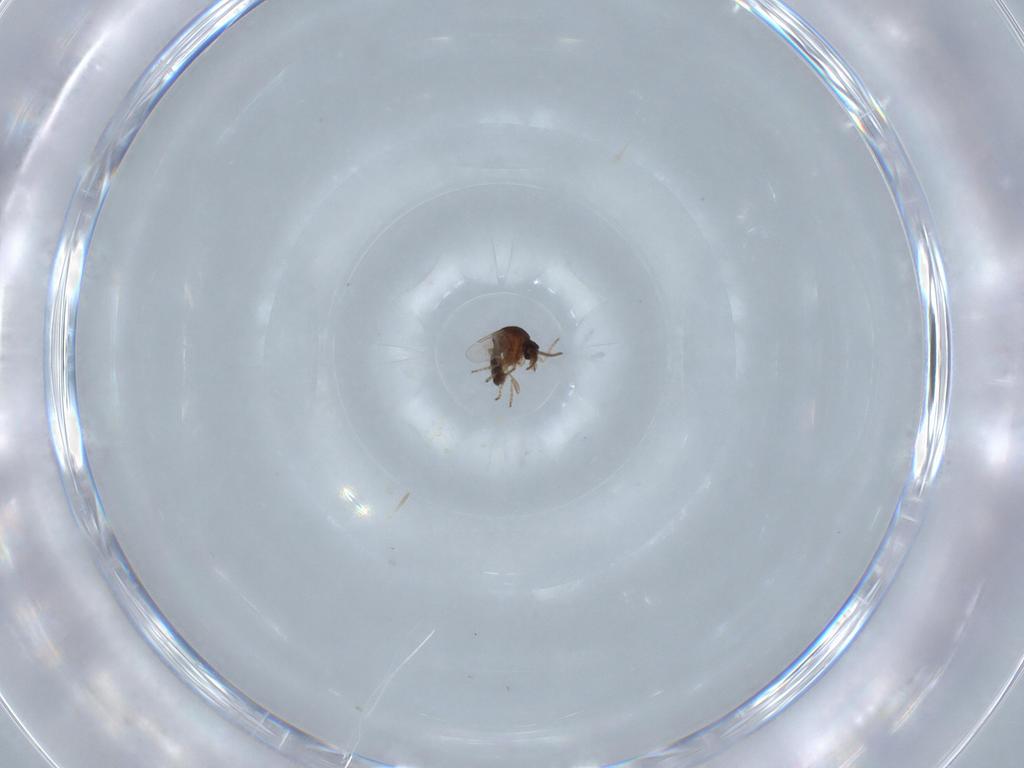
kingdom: Animalia
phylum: Arthropoda
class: Insecta
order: Diptera
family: Ceratopogonidae
